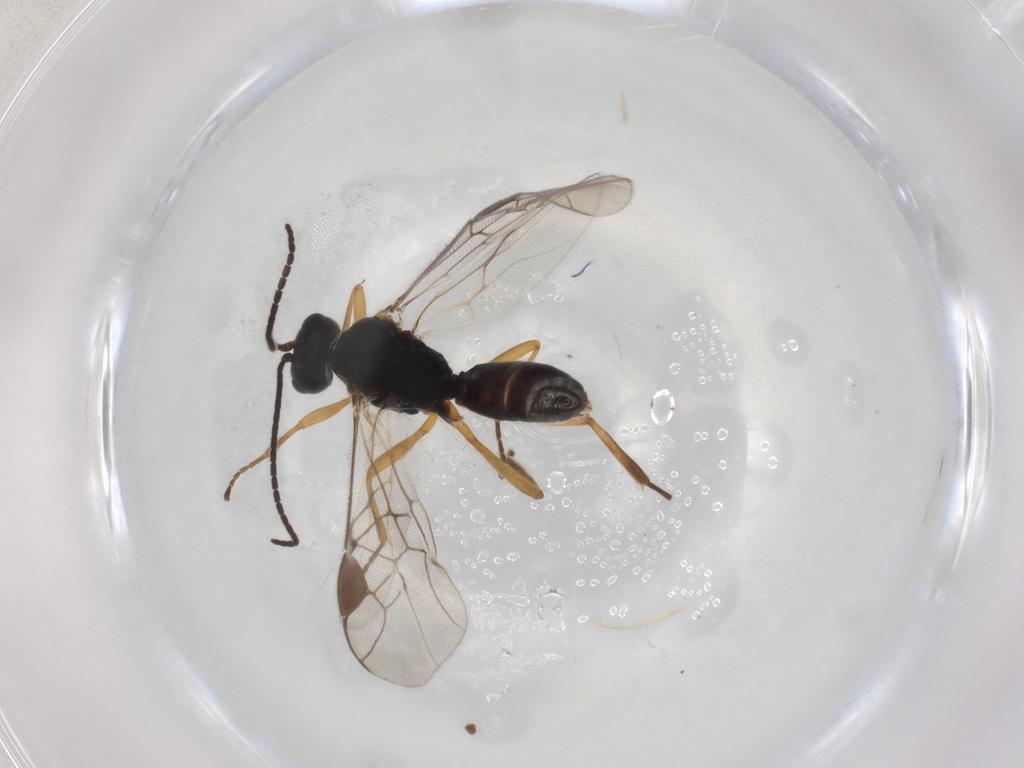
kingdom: Animalia
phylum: Arthropoda
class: Insecta
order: Hymenoptera
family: Braconidae
